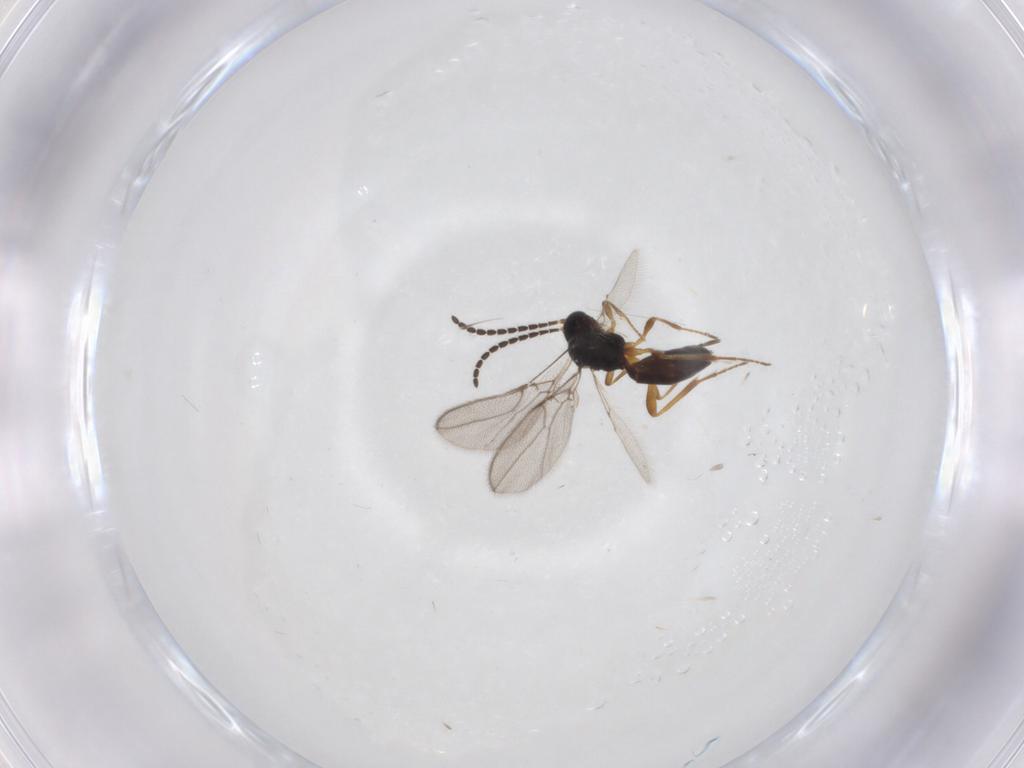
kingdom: Animalia
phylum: Arthropoda
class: Insecta
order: Hymenoptera
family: Braconidae
